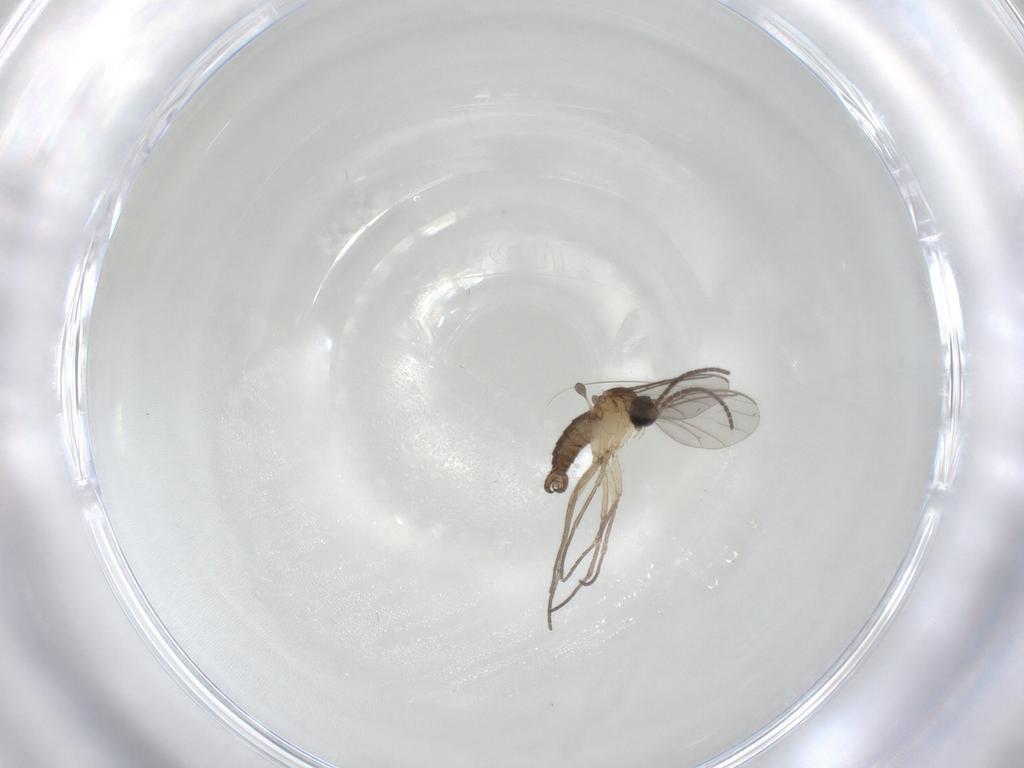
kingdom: Animalia
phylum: Arthropoda
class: Insecta
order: Diptera
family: Sciaridae
